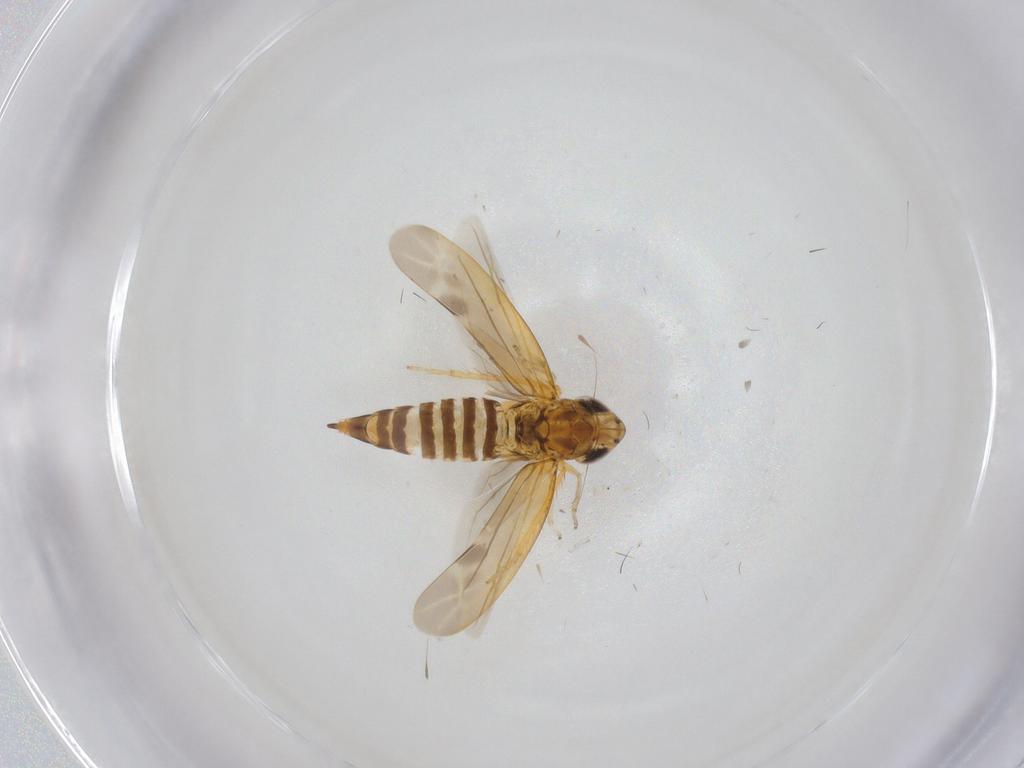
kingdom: Animalia
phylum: Arthropoda
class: Insecta
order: Hemiptera
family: Cicadellidae
